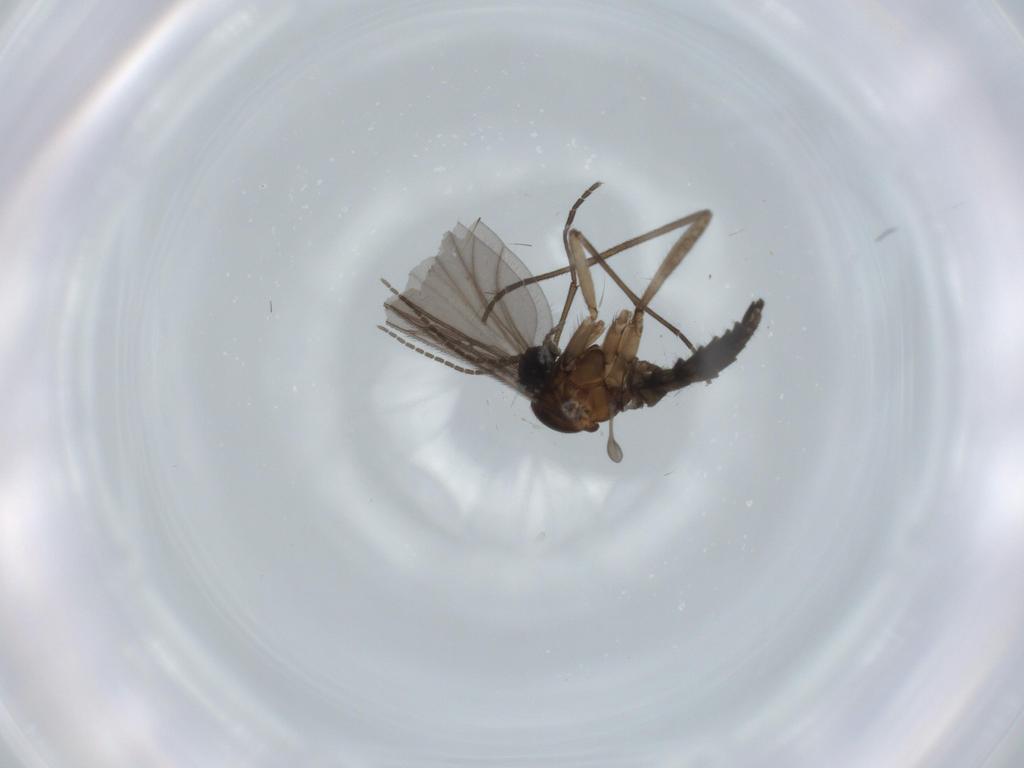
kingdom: Animalia
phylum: Arthropoda
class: Insecta
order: Diptera
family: Sciaridae
